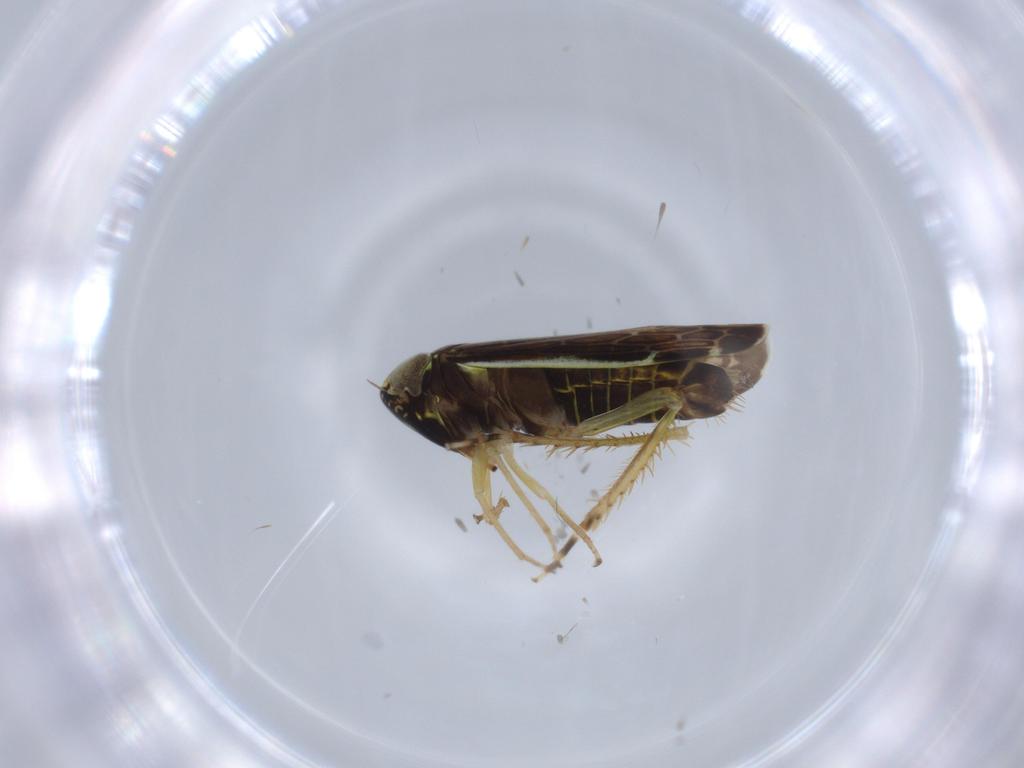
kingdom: Animalia
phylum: Arthropoda
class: Insecta
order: Hemiptera
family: Cicadellidae
